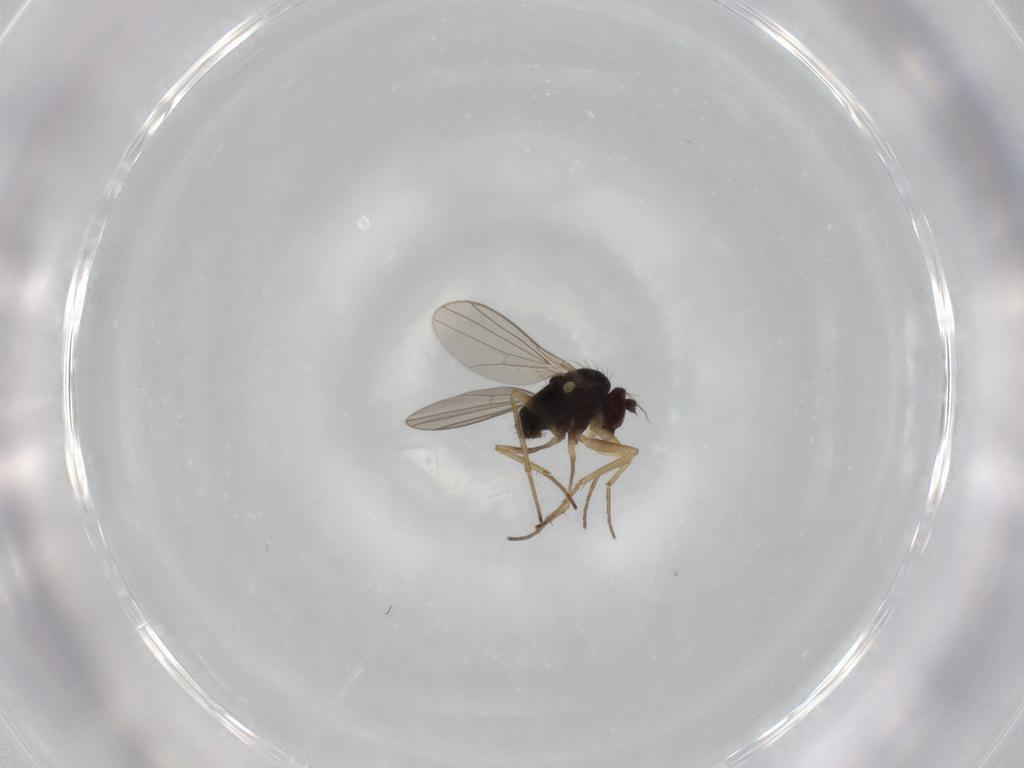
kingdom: Animalia
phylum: Arthropoda
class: Insecta
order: Diptera
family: Dolichopodidae
